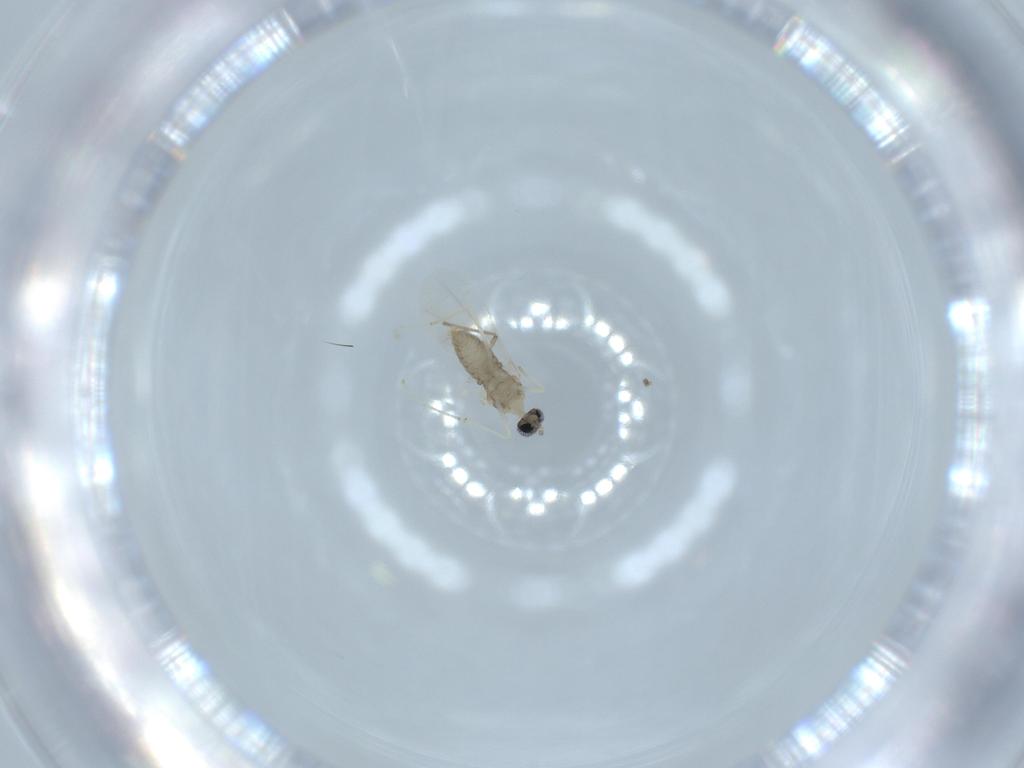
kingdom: Animalia
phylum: Arthropoda
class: Insecta
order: Diptera
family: Cecidomyiidae
